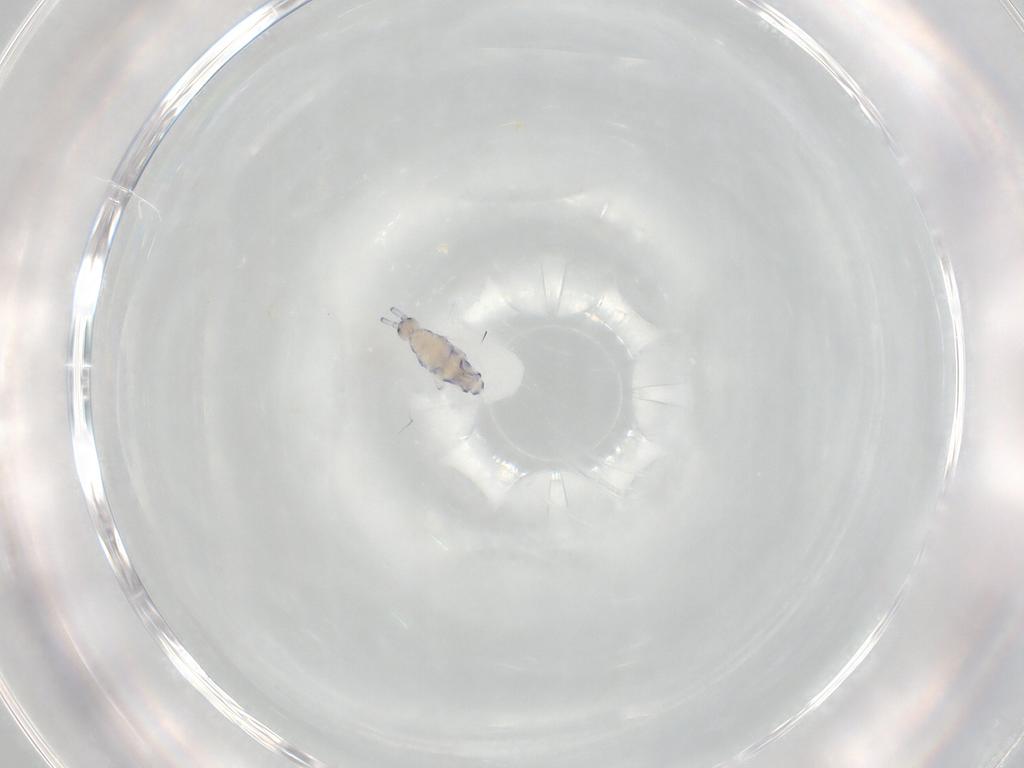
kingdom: Animalia
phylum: Arthropoda
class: Collembola
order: Entomobryomorpha
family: Entomobryidae
